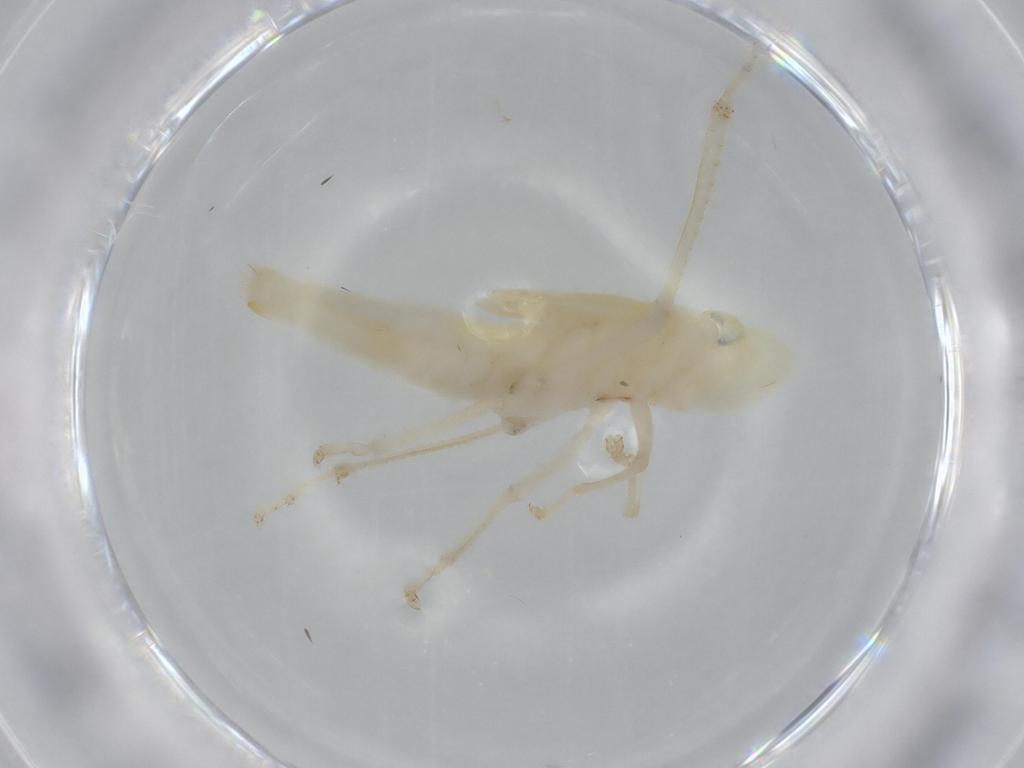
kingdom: Animalia
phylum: Arthropoda
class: Insecta
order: Hemiptera
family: Cicadellidae
